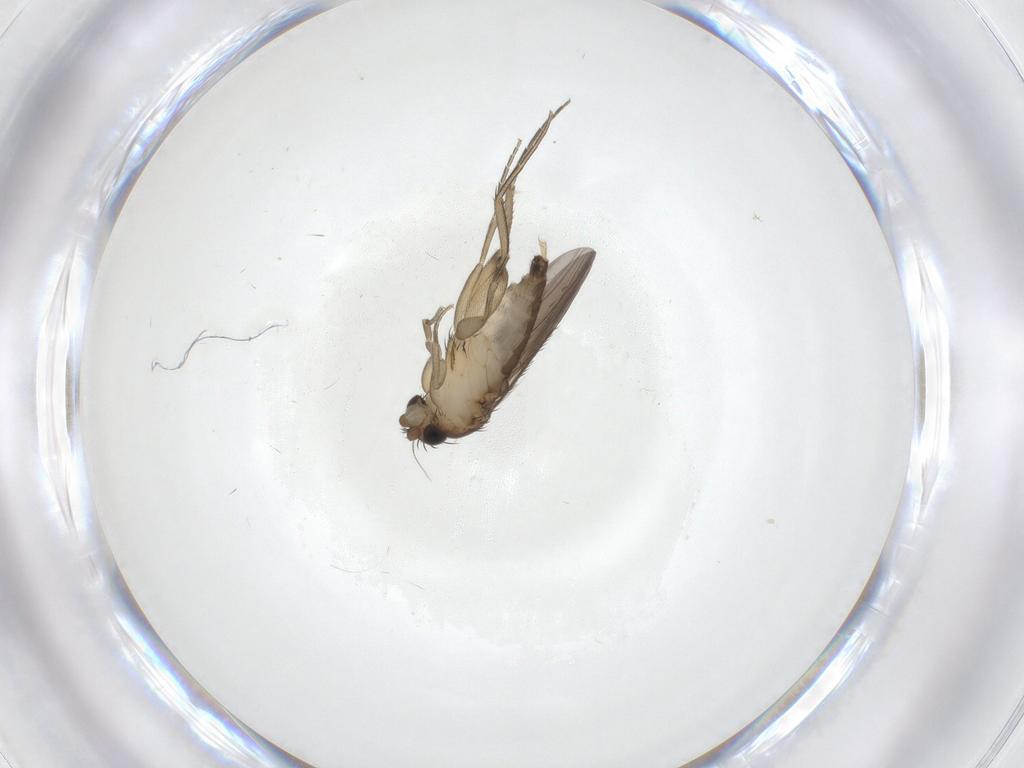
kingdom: Animalia
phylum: Arthropoda
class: Insecta
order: Diptera
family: Phoridae
